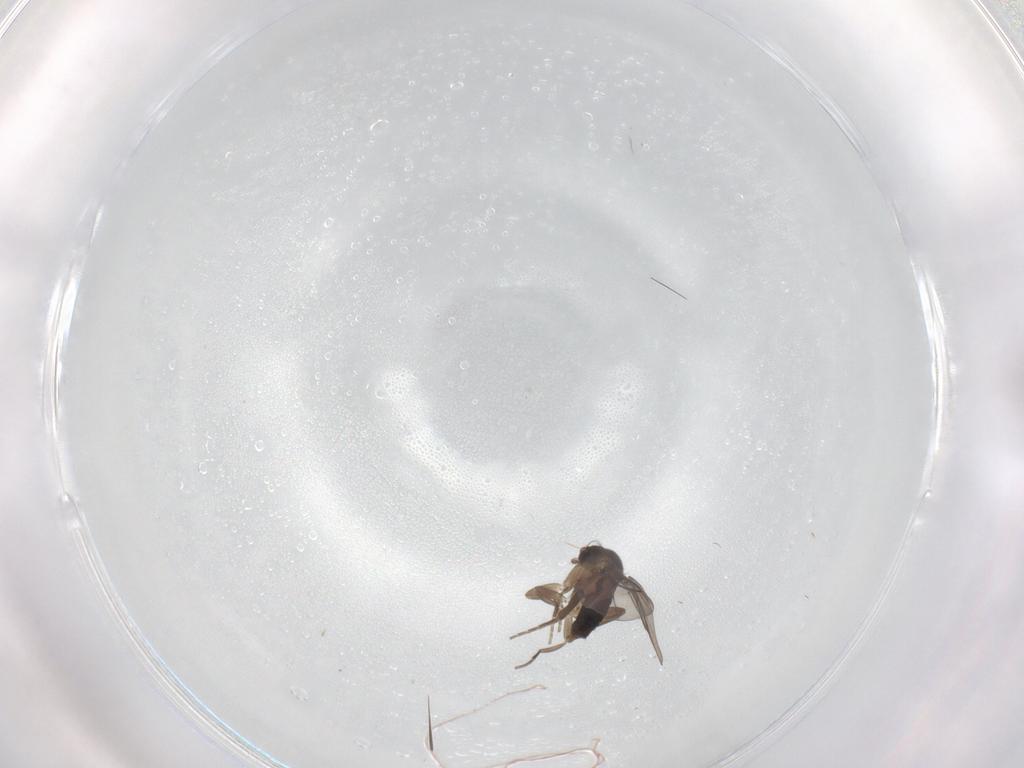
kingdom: Animalia
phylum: Arthropoda
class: Insecta
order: Diptera
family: Phoridae
